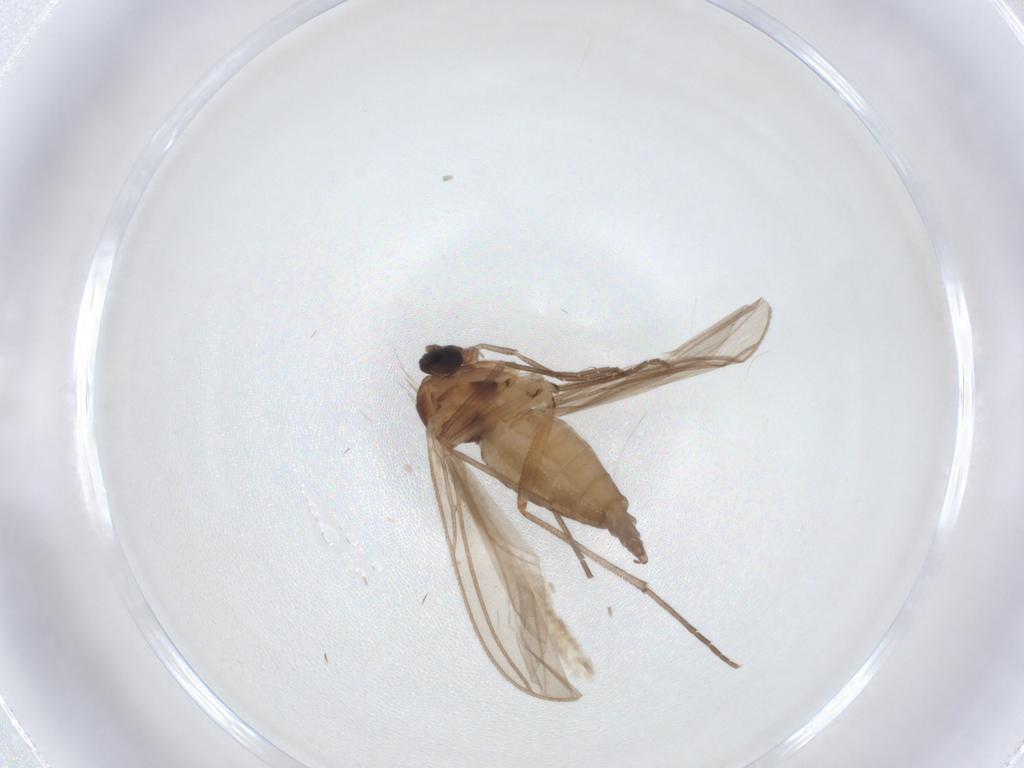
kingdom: Animalia
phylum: Arthropoda
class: Insecta
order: Diptera
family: Sciaridae
